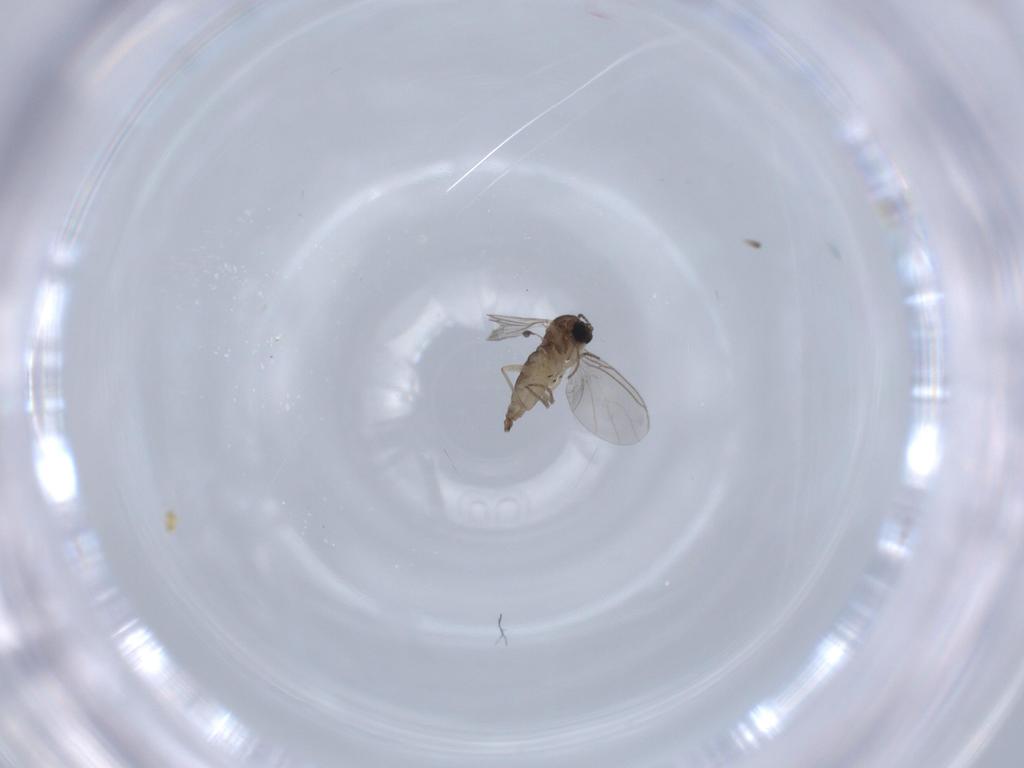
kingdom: Animalia
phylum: Arthropoda
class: Insecta
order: Diptera
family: Sciaridae
